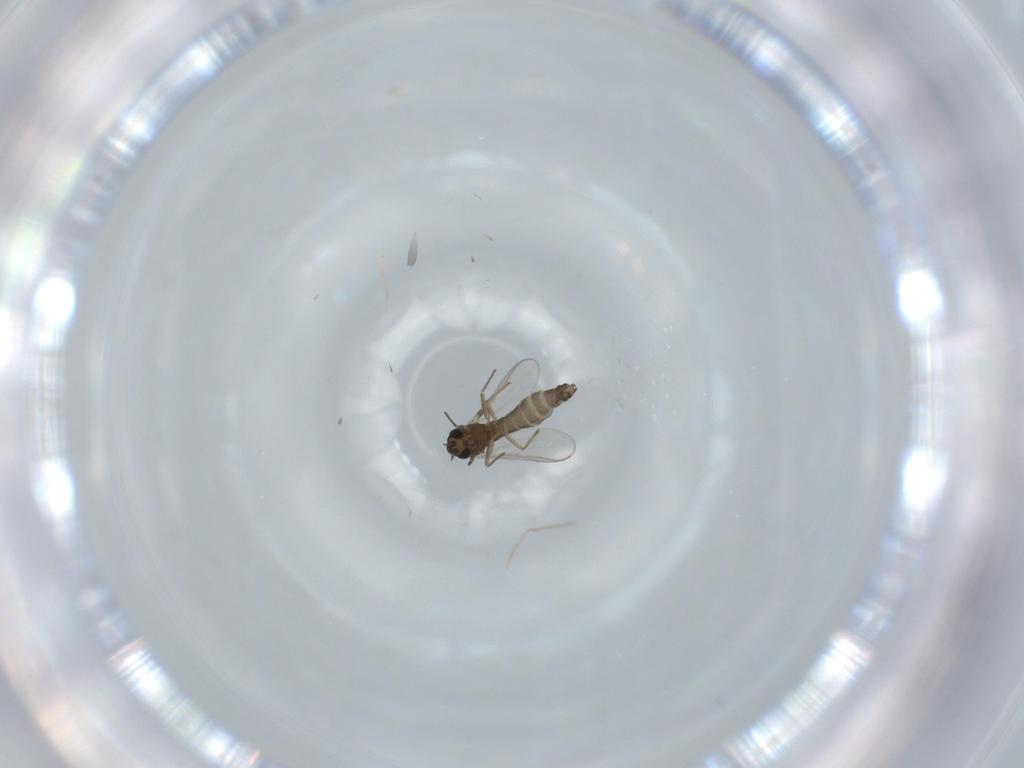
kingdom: Animalia
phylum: Arthropoda
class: Insecta
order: Diptera
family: Chironomidae
